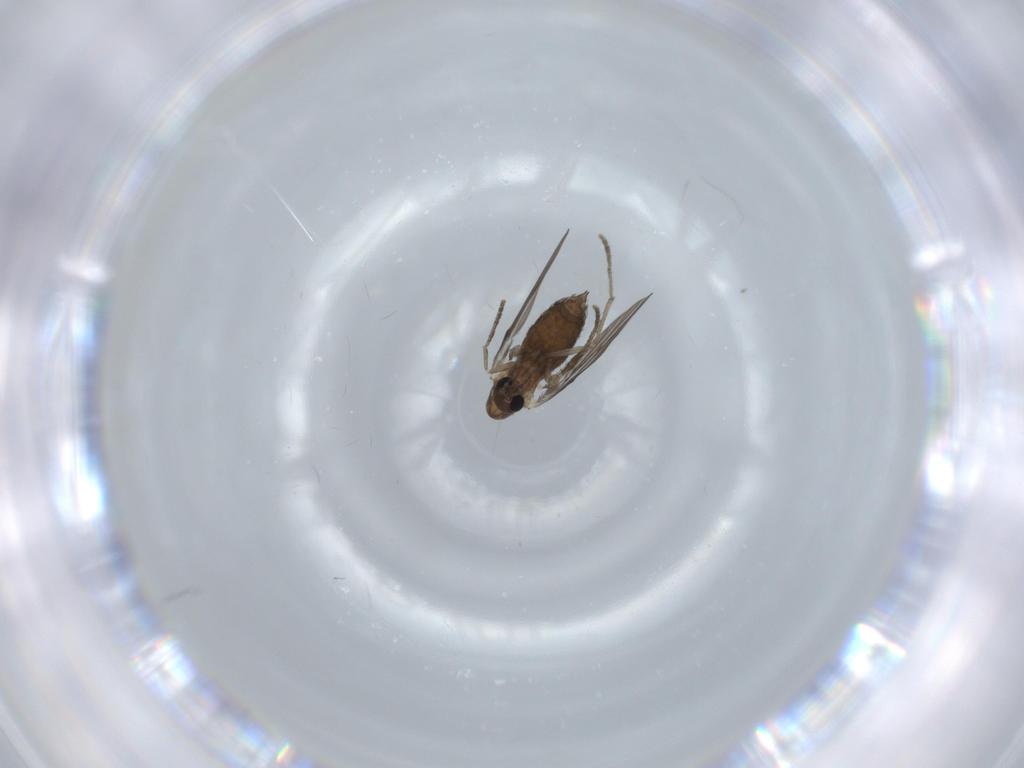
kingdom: Animalia
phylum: Arthropoda
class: Insecta
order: Diptera
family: Psychodidae
